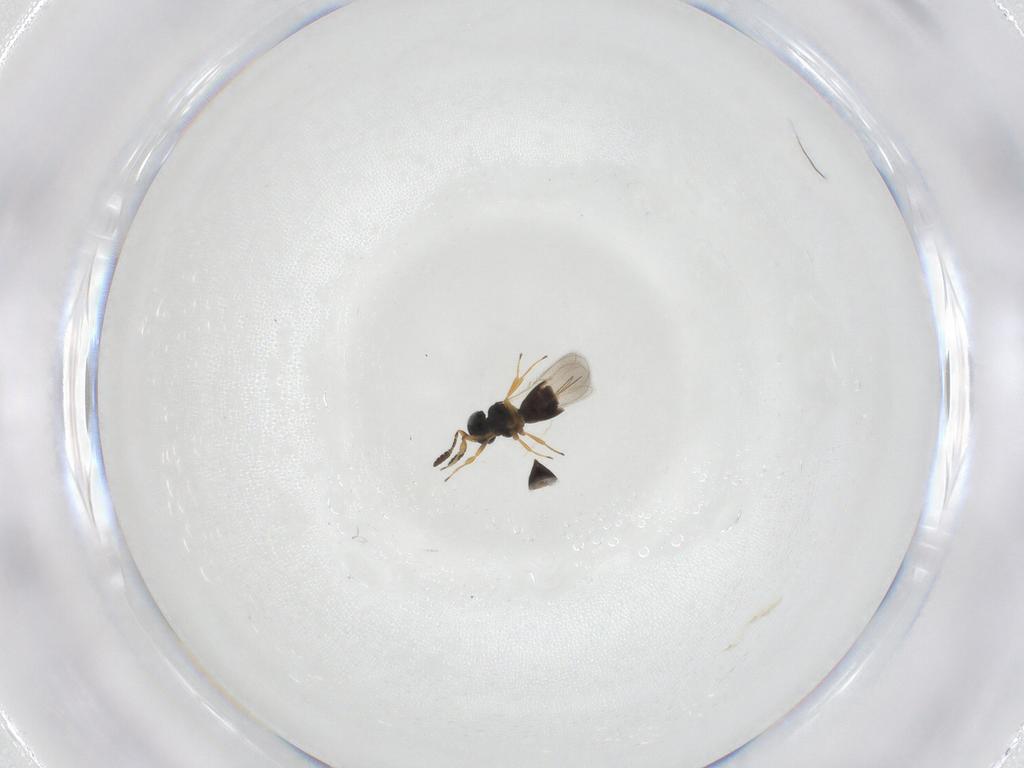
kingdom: Animalia
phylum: Arthropoda
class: Insecta
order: Hymenoptera
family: Scelionidae
